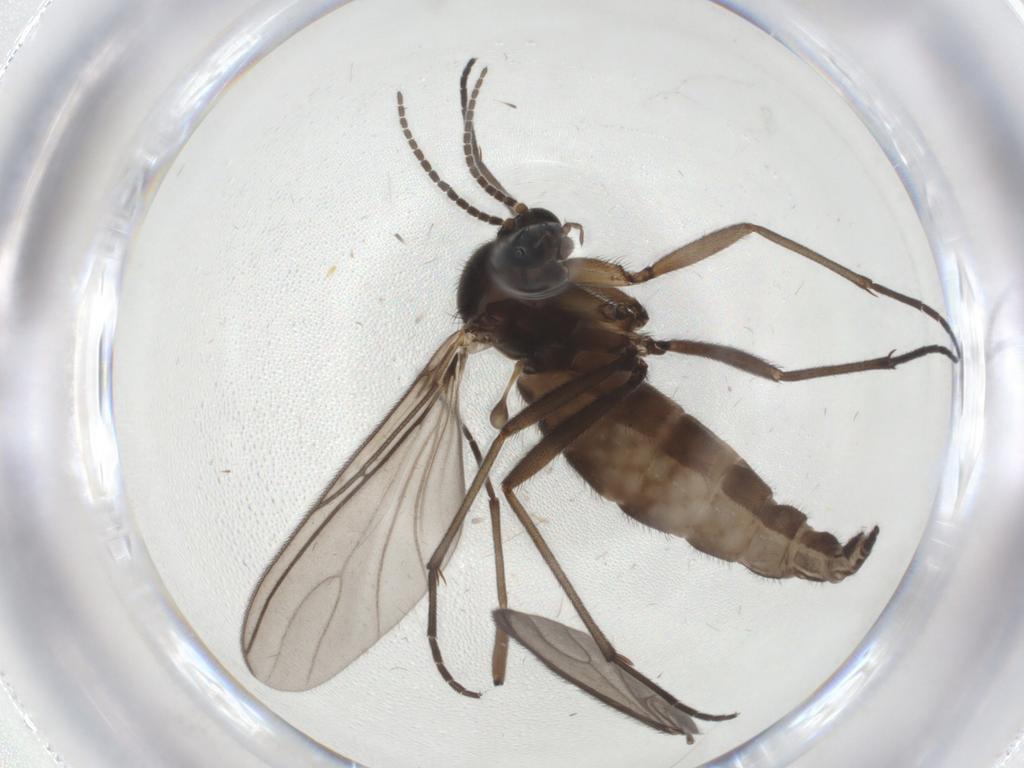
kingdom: Animalia
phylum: Arthropoda
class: Insecta
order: Diptera
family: Sciaridae
